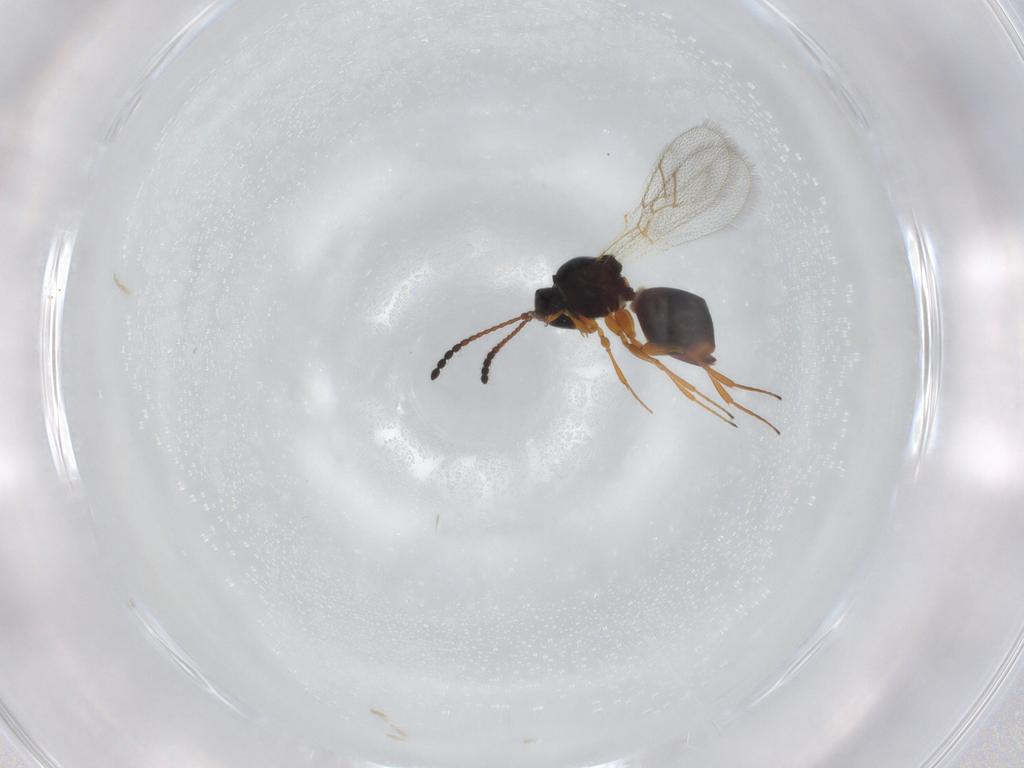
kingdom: Animalia
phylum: Arthropoda
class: Insecta
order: Hymenoptera
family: Figitidae
